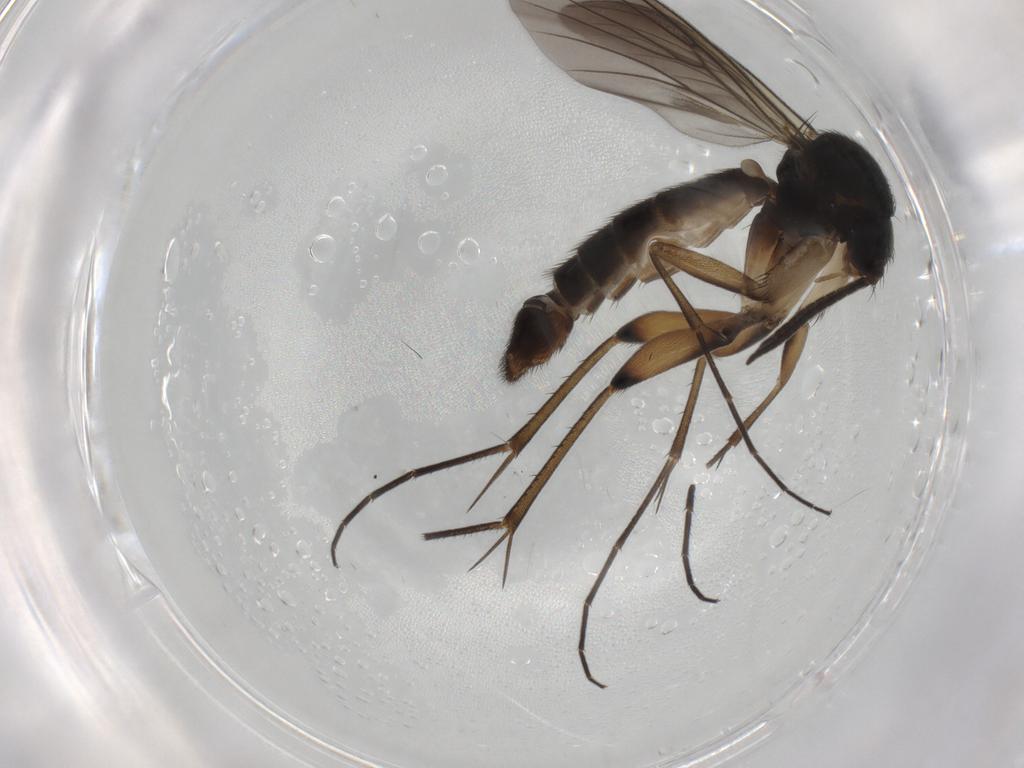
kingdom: Animalia
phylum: Arthropoda
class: Insecta
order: Diptera
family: Mycetophilidae
